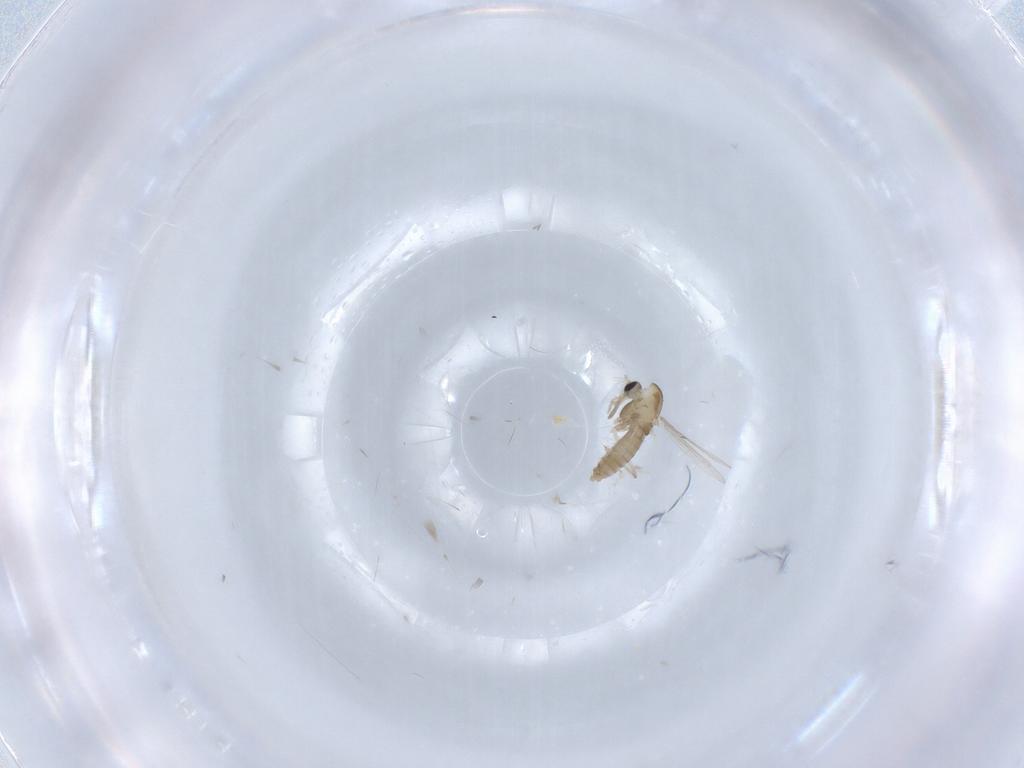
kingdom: Animalia
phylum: Arthropoda
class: Insecta
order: Diptera
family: Chironomidae
